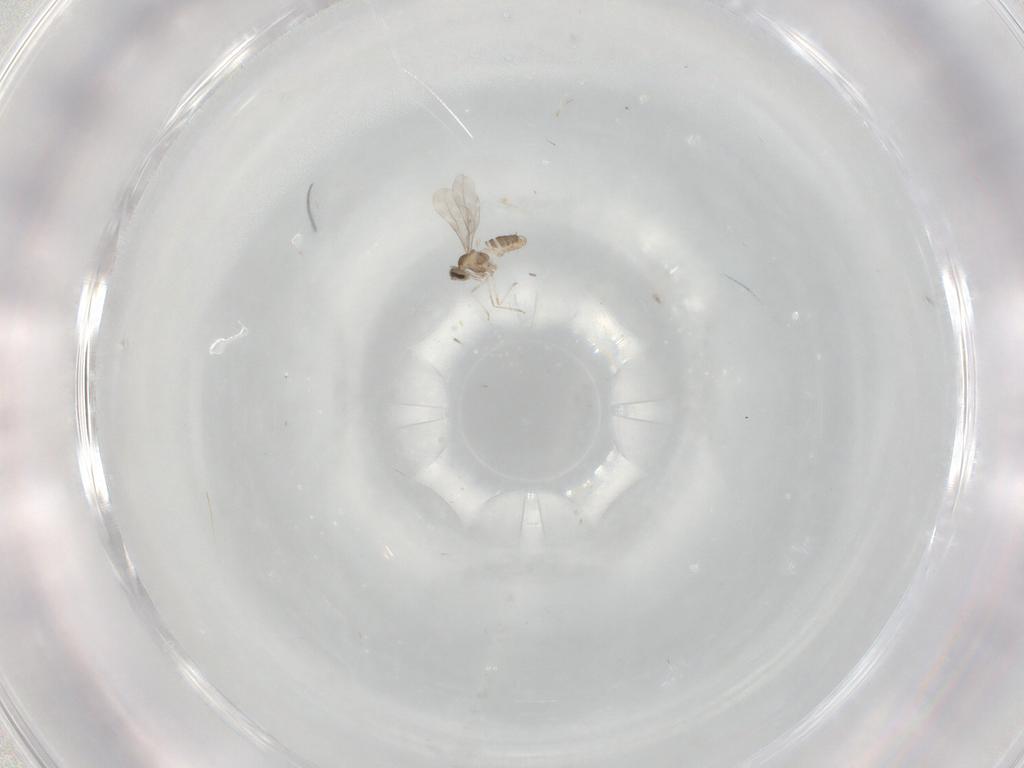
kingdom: Animalia
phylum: Arthropoda
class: Insecta
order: Diptera
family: Cecidomyiidae
